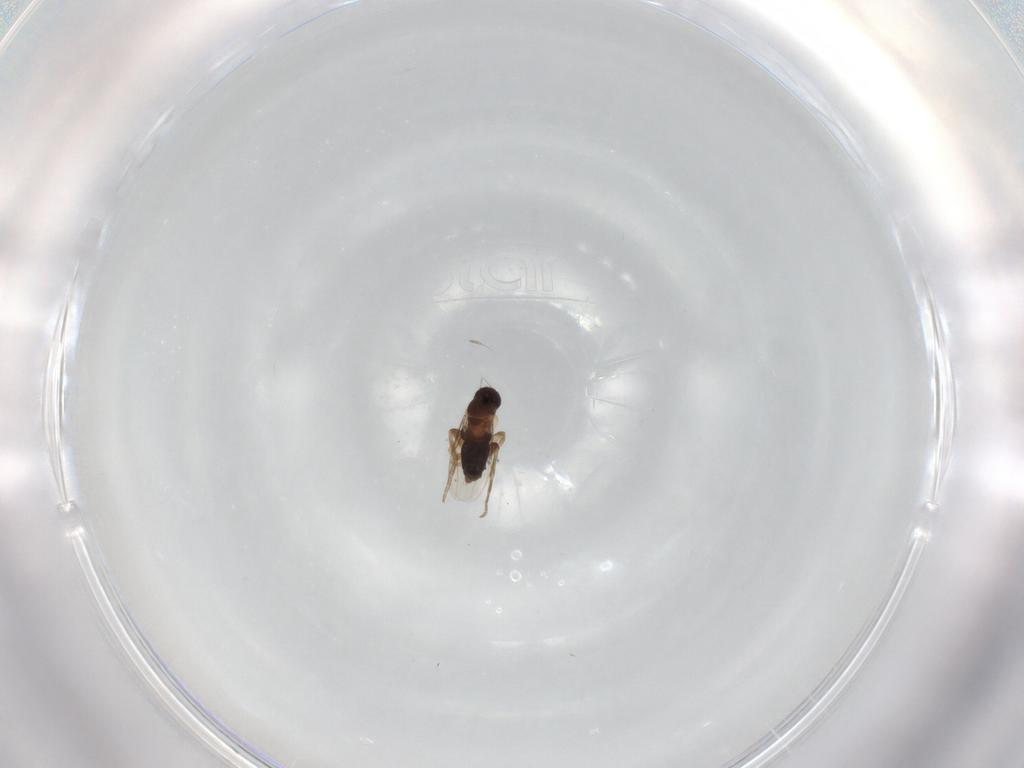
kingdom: Animalia
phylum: Arthropoda
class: Insecta
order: Diptera
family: Phoridae
